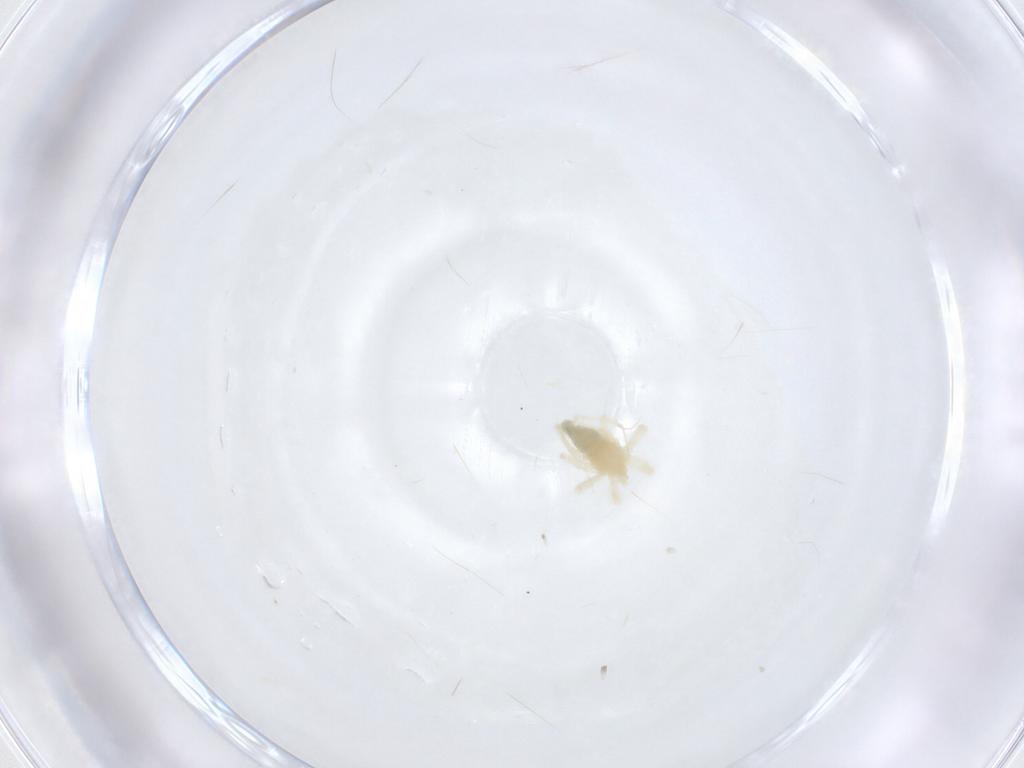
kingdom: Animalia
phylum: Arthropoda
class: Arachnida
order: Trombidiformes
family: Anystidae
